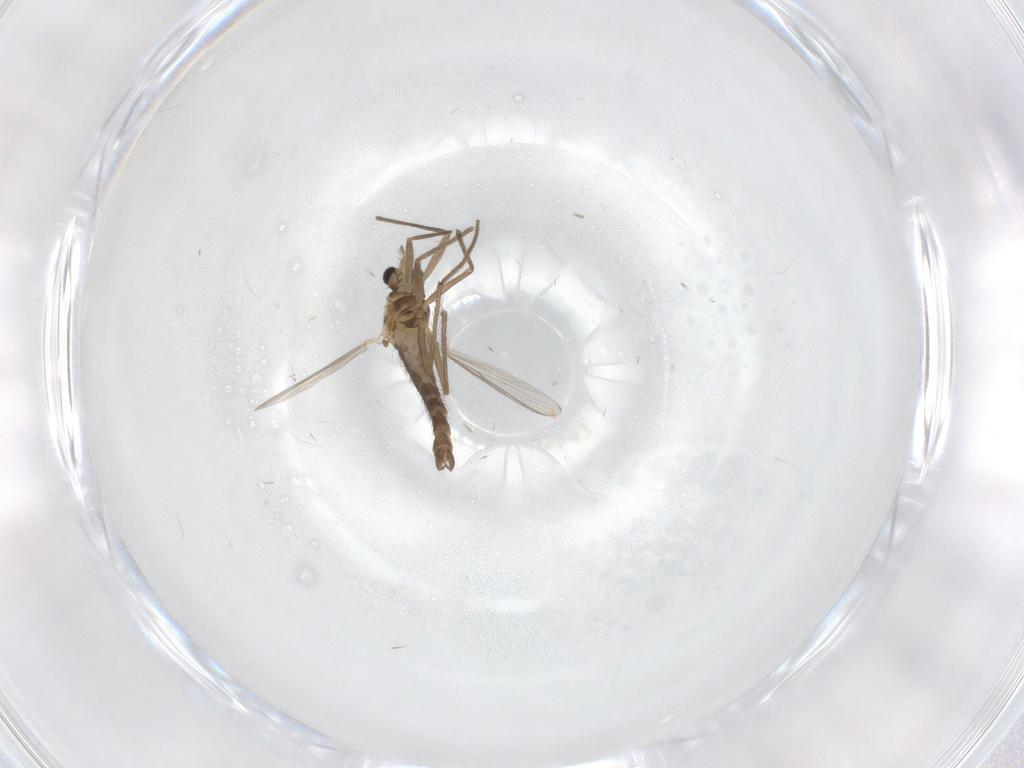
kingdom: Animalia
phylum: Arthropoda
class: Insecta
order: Diptera
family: Chironomidae
